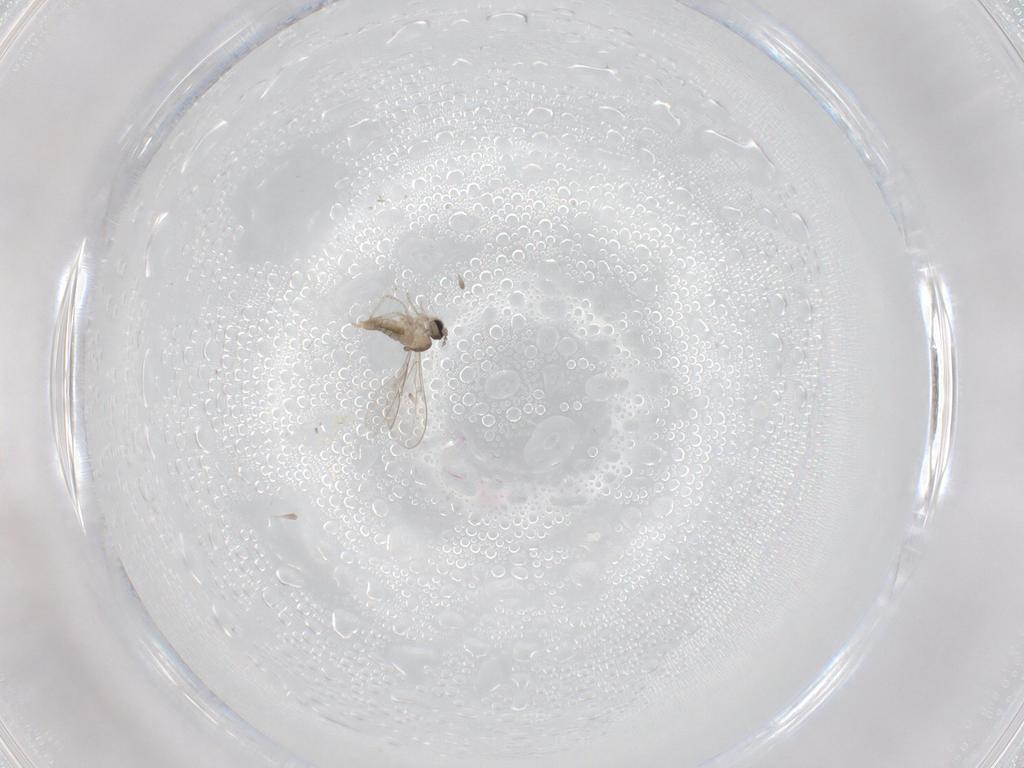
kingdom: Animalia
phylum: Arthropoda
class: Insecta
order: Diptera
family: Cecidomyiidae
